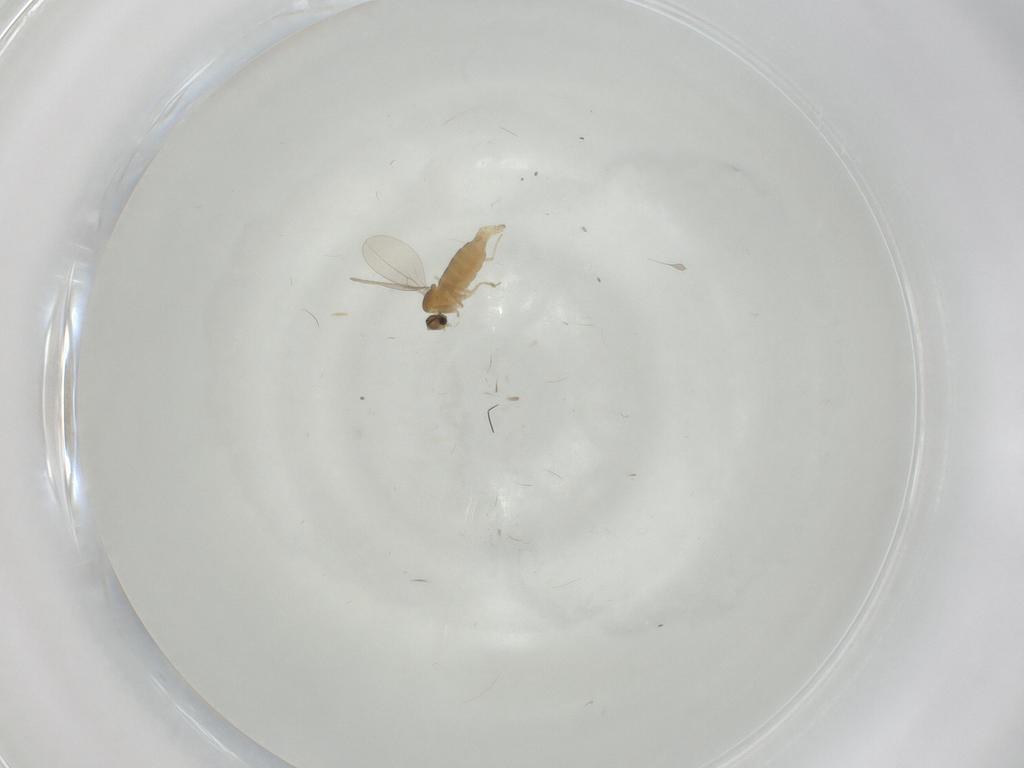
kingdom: Animalia
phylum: Arthropoda
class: Insecta
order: Diptera
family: Cecidomyiidae
